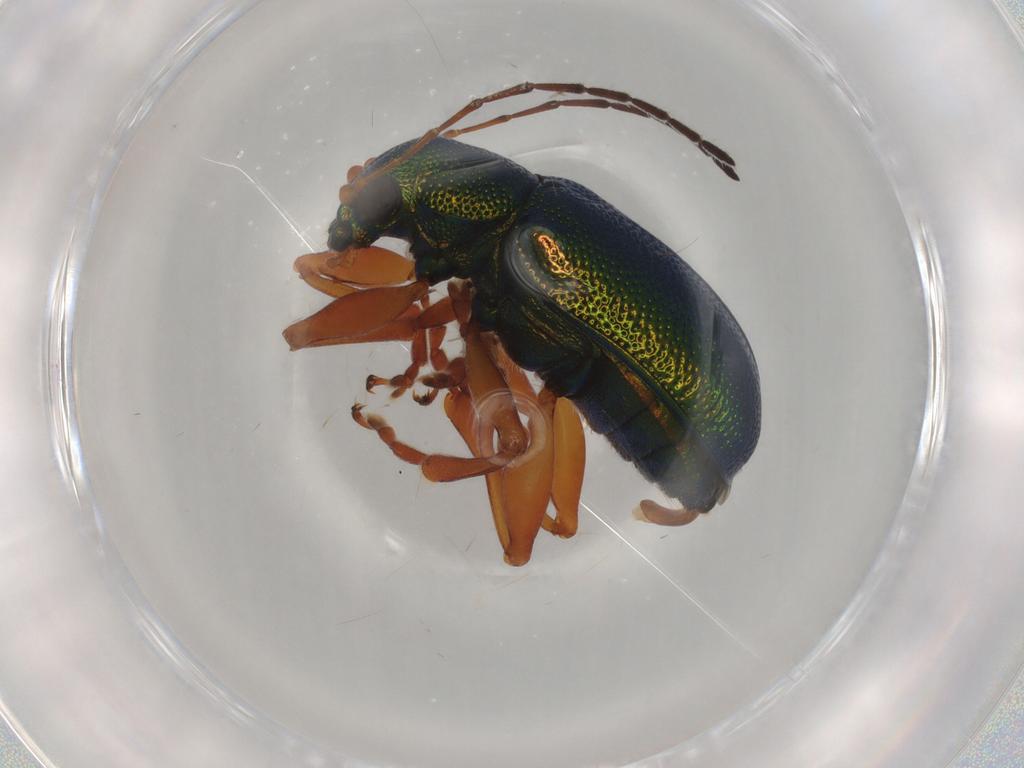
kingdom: Animalia
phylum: Arthropoda
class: Insecta
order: Coleoptera
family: Chrysomelidae
